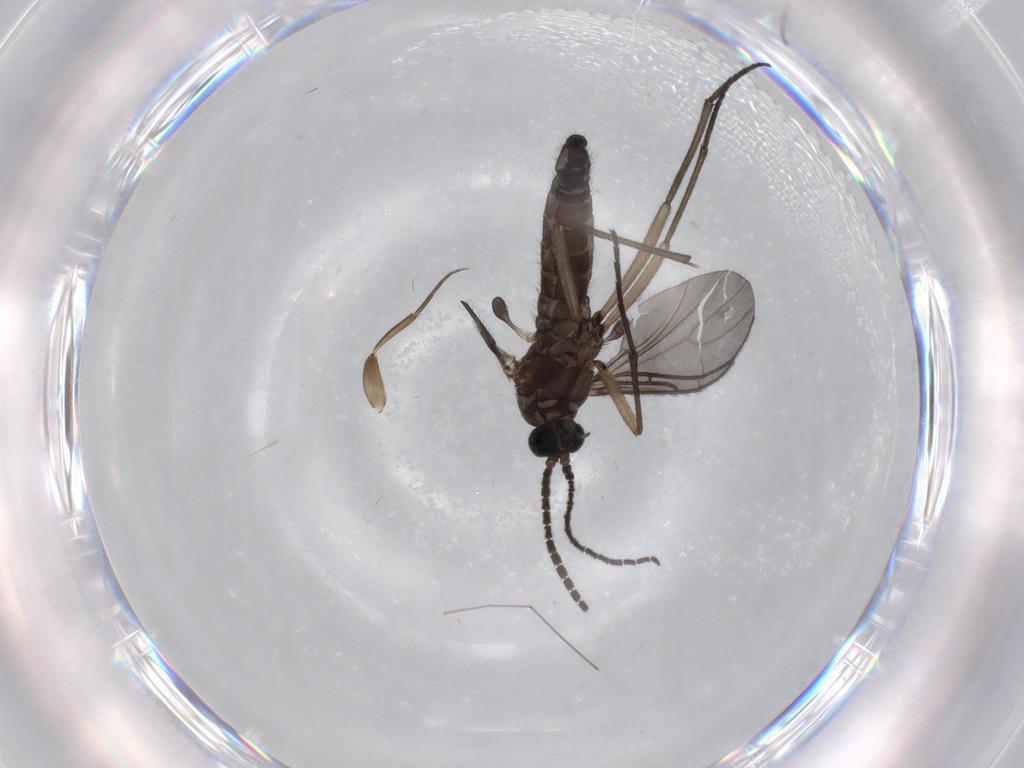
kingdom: Animalia
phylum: Arthropoda
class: Insecta
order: Diptera
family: Sciaridae
